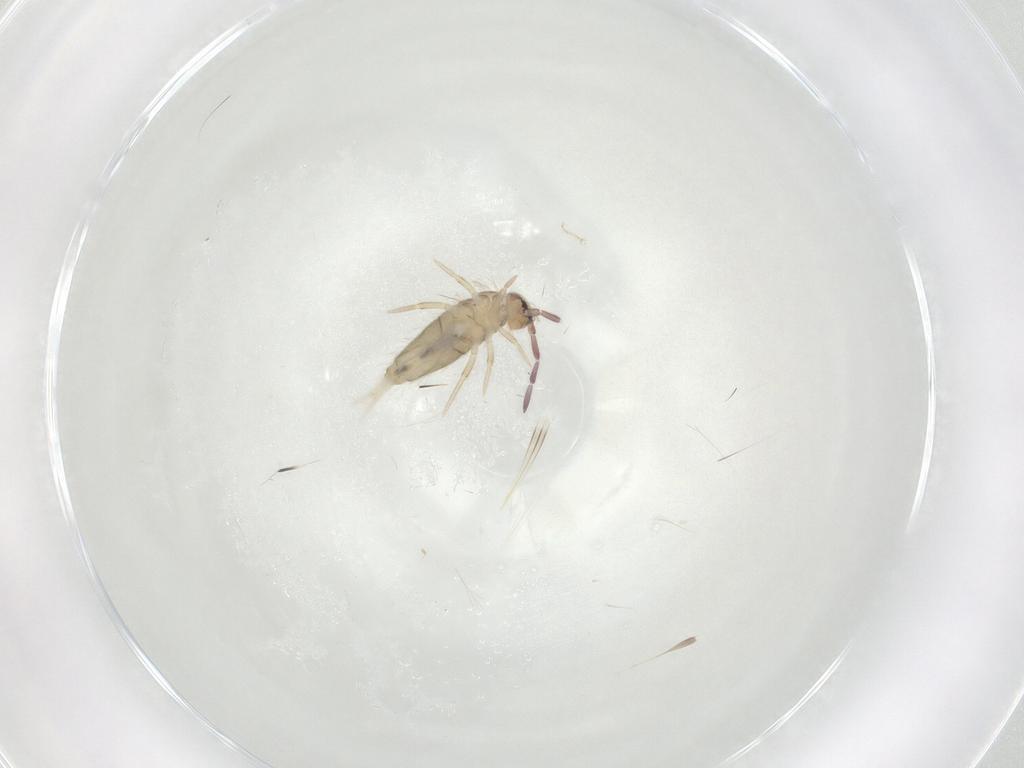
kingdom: Animalia
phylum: Arthropoda
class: Collembola
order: Entomobryomorpha
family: Entomobryidae
